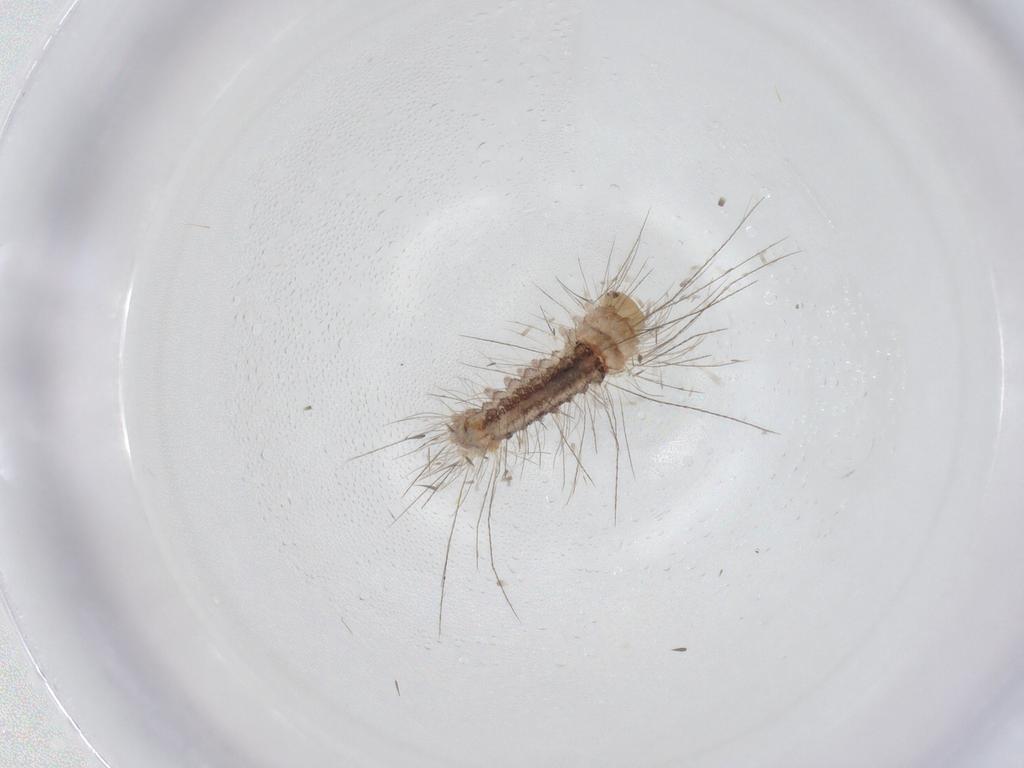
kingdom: Animalia
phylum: Arthropoda
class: Insecta
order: Lepidoptera
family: Erebidae
